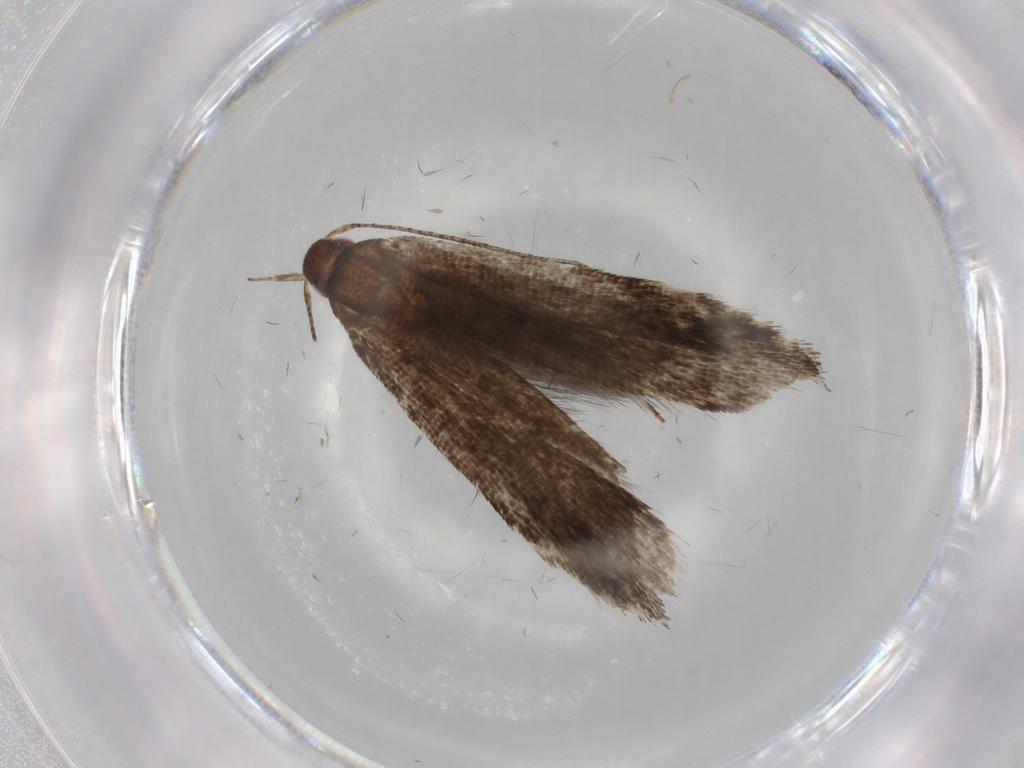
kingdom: Animalia
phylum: Arthropoda
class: Insecta
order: Lepidoptera
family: Gelechiidae
